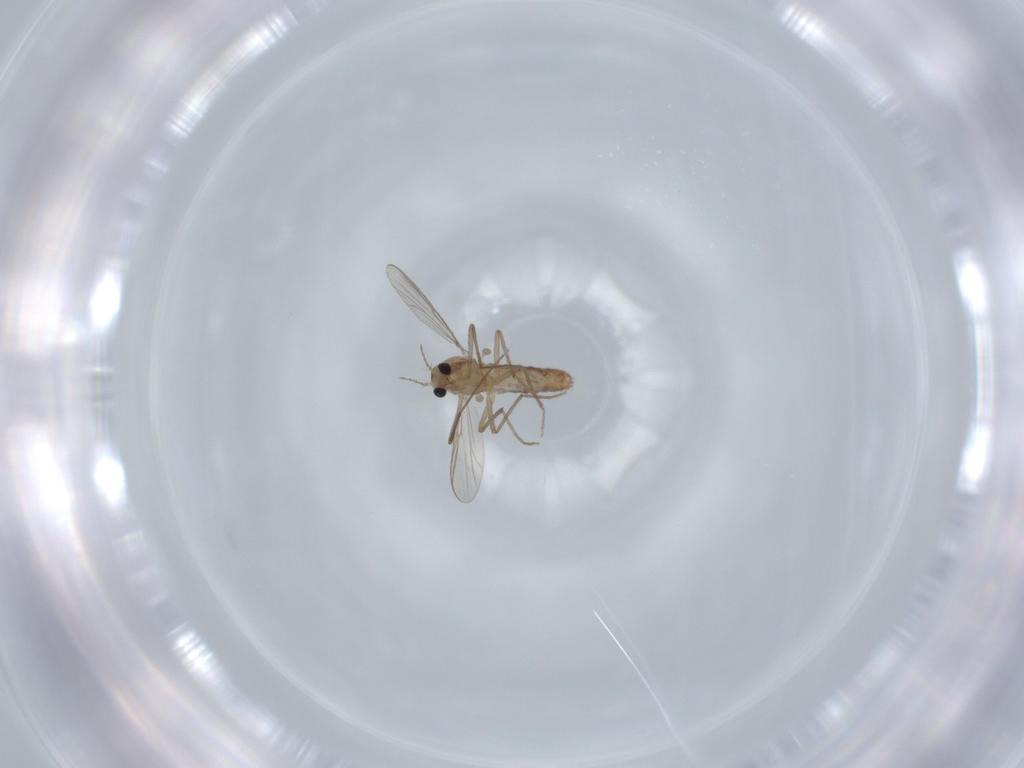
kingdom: Animalia
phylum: Arthropoda
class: Insecta
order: Diptera
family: Chironomidae
